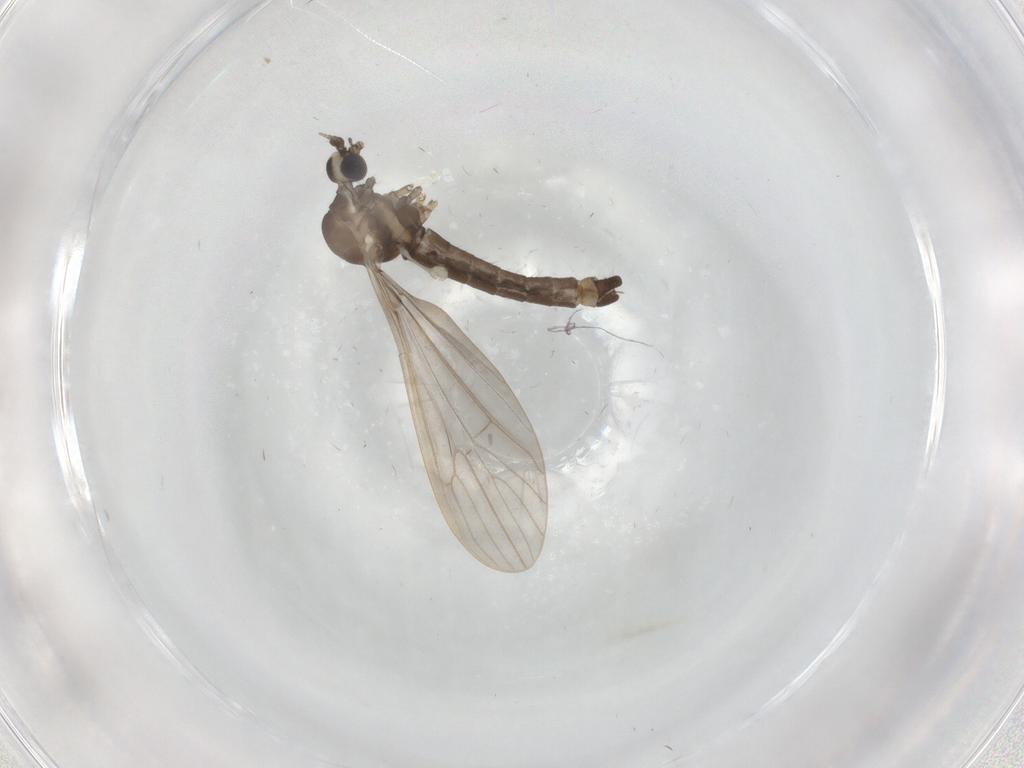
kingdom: Animalia
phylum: Arthropoda
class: Insecta
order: Diptera
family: Limoniidae
